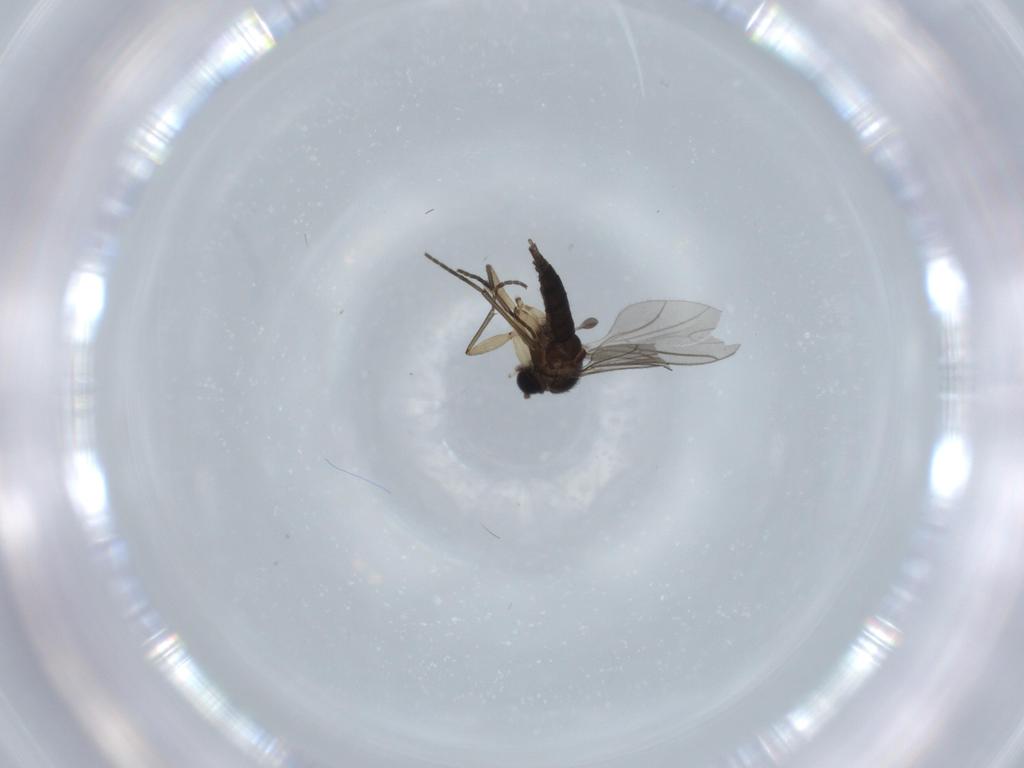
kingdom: Animalia
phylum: Arthropoda
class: Insecta
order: Diptera
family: Sciaridae
